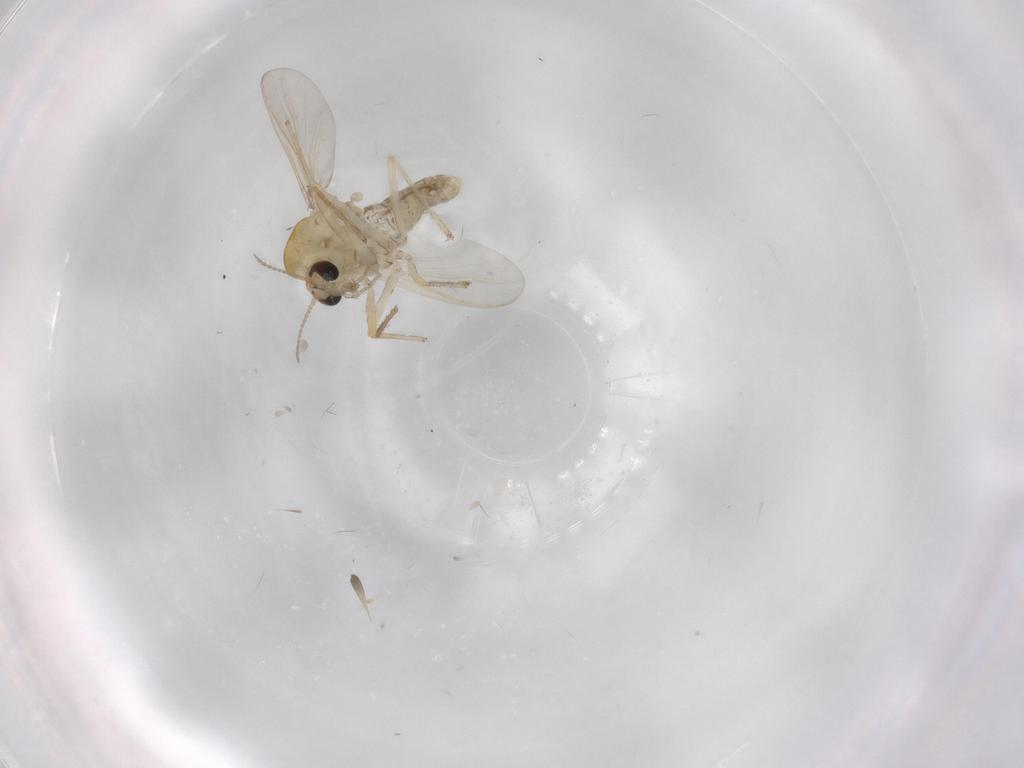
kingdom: Animalia
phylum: Arthropoda
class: Insecta
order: Diptera
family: Chironomidae
